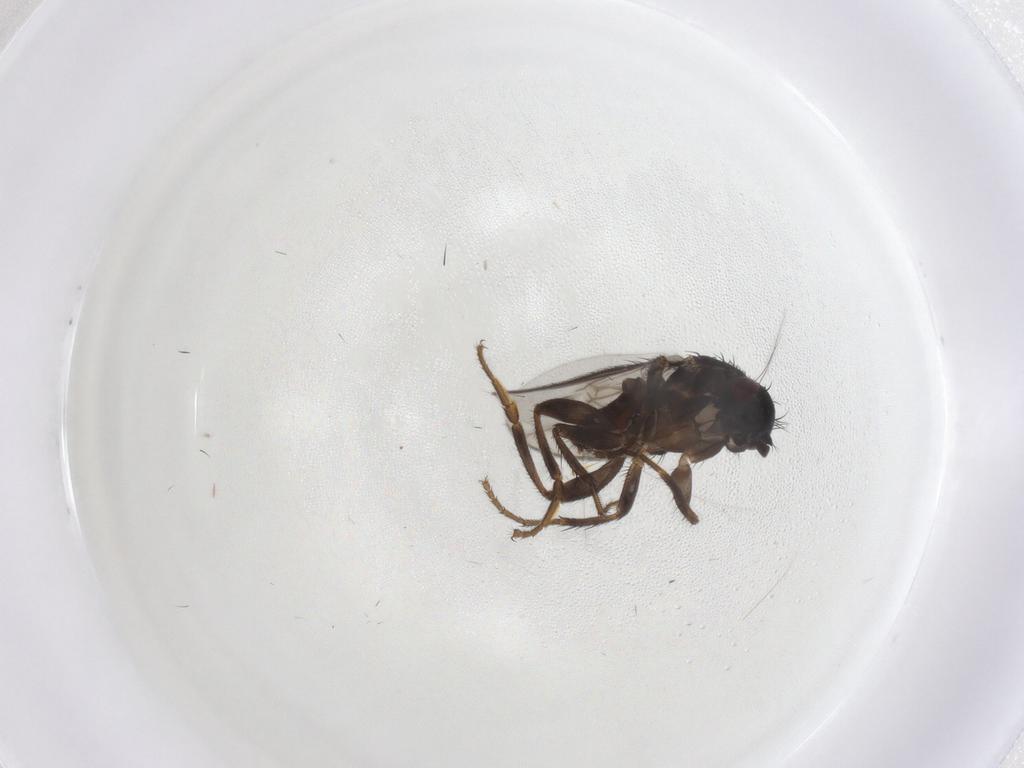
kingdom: Animalia
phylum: Arthropoda
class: Insecta
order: Diptera
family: Sphaeroceridae
